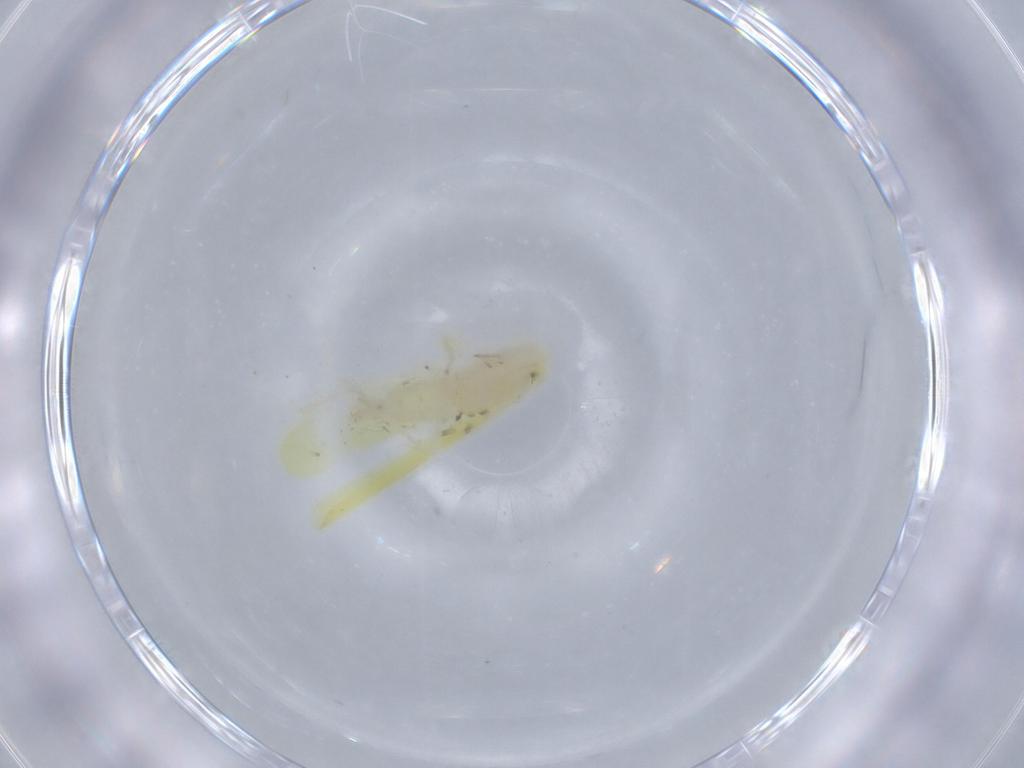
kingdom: Animalia
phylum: Arthropoda
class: Insecta
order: Hemiptera
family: Cicadellidae
